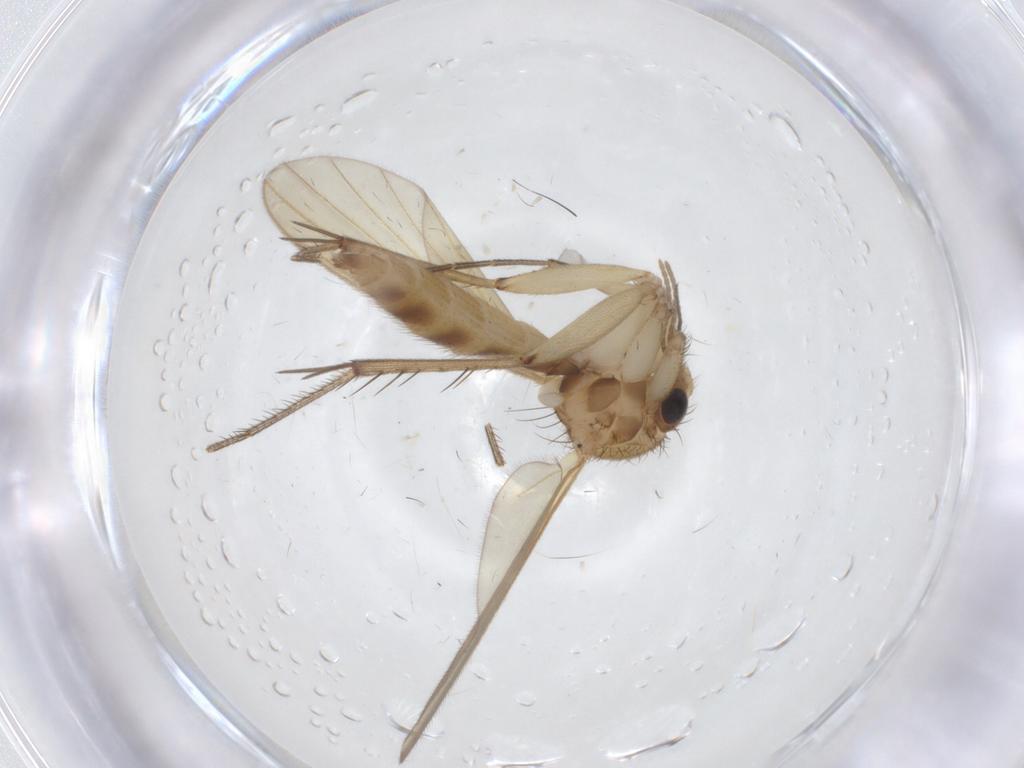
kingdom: Animalia
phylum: Arthropoda
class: Insecta
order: Diptera
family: Mycetophilidae
